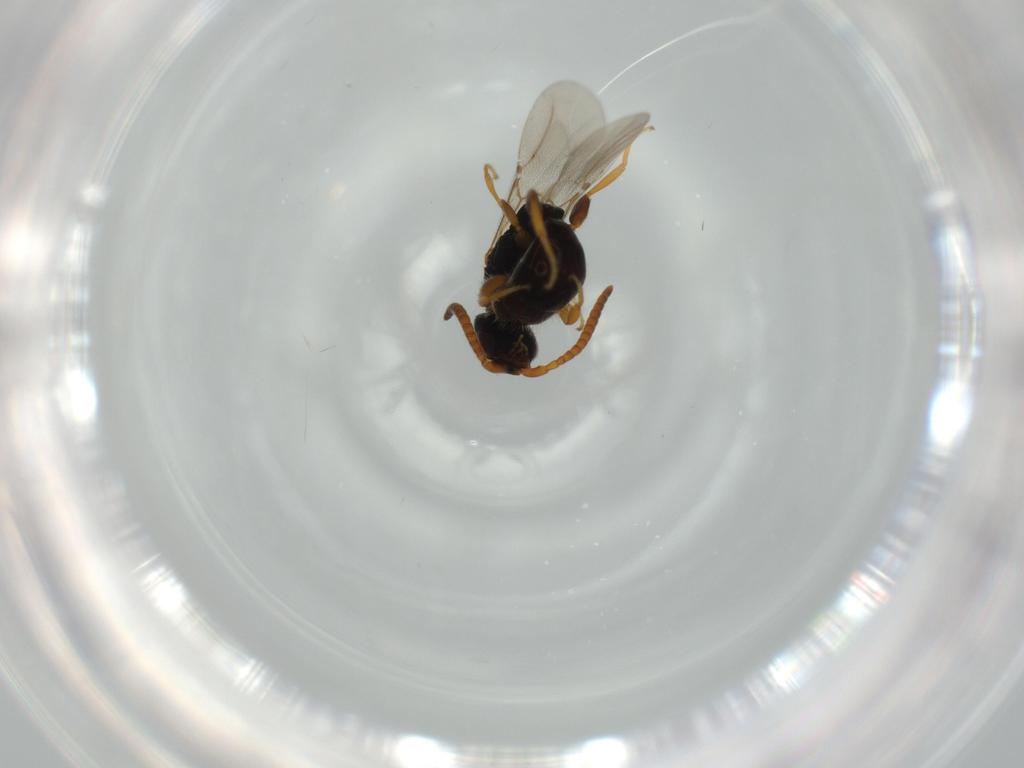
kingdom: Animalia
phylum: Arthropoda
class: Insecta
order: Hymenoptera
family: Bethylidae
